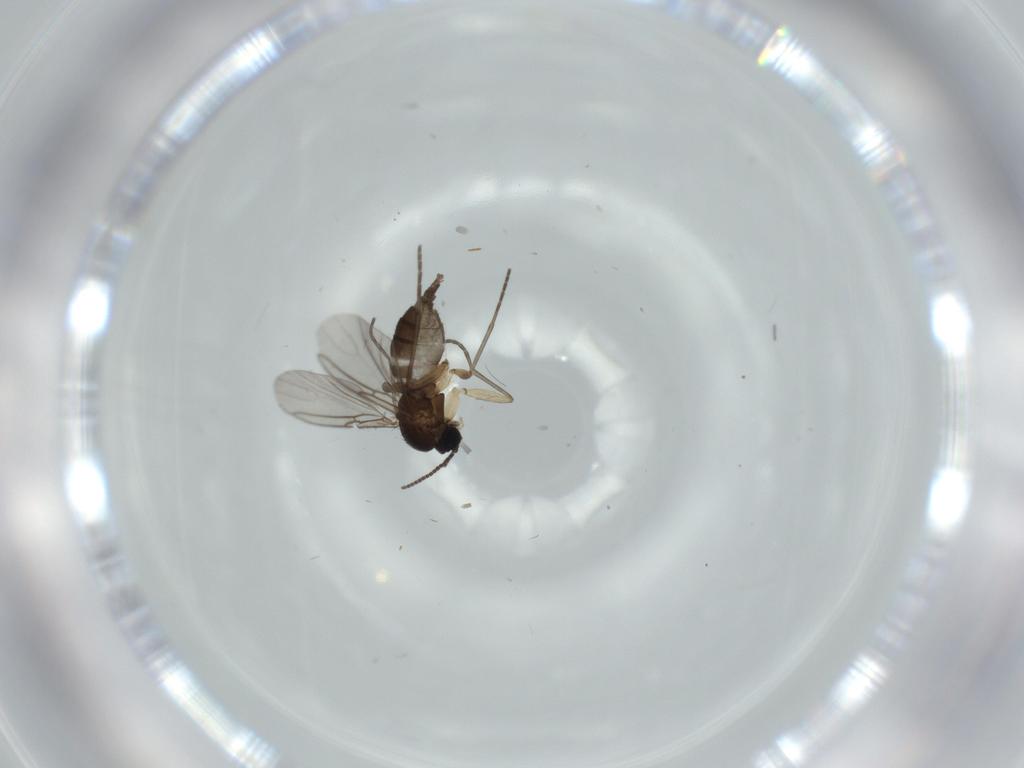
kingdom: Animalia
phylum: Arthropoda
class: Insecta
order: Diptera
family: Sciaridae
